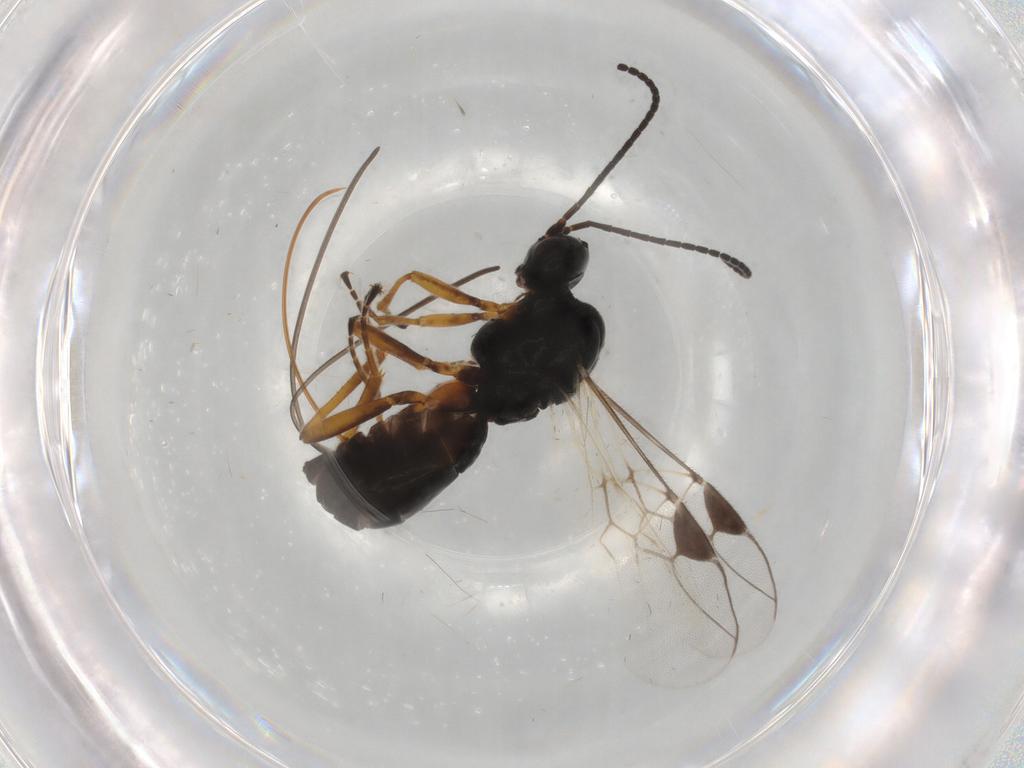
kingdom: Animalia
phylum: Arthropoda
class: Insecta
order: Hymenoptera
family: Braconidae
